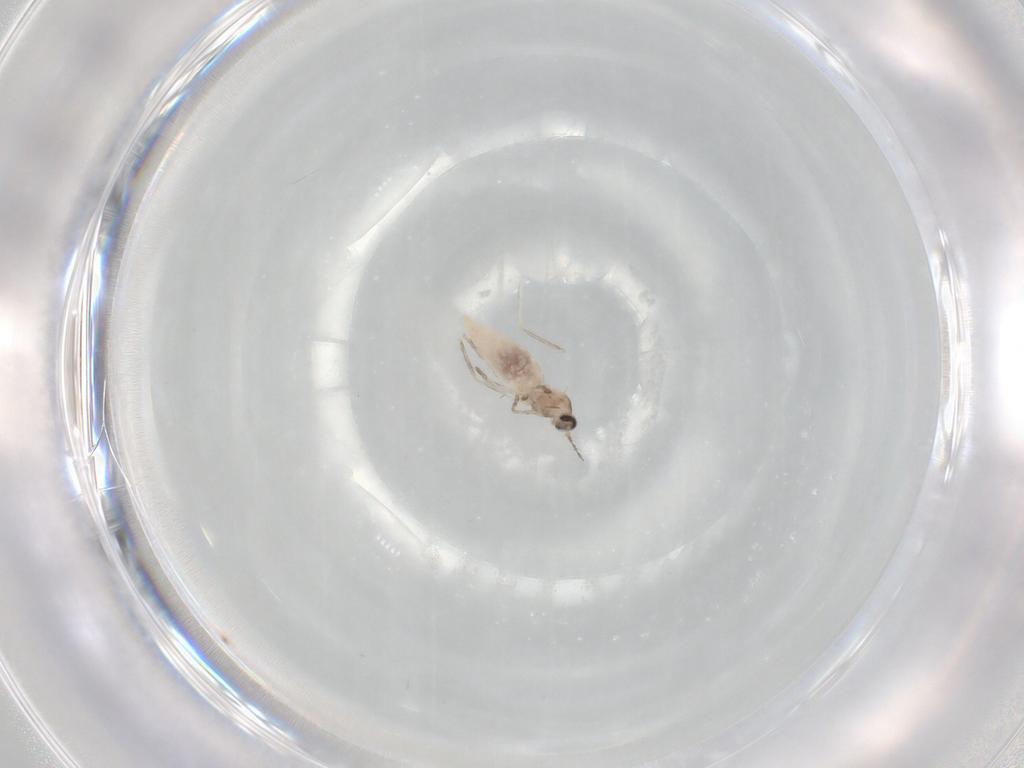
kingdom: Animalia
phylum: Arthropoda
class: Insecta
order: Diptera
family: Cecidomyiidae
